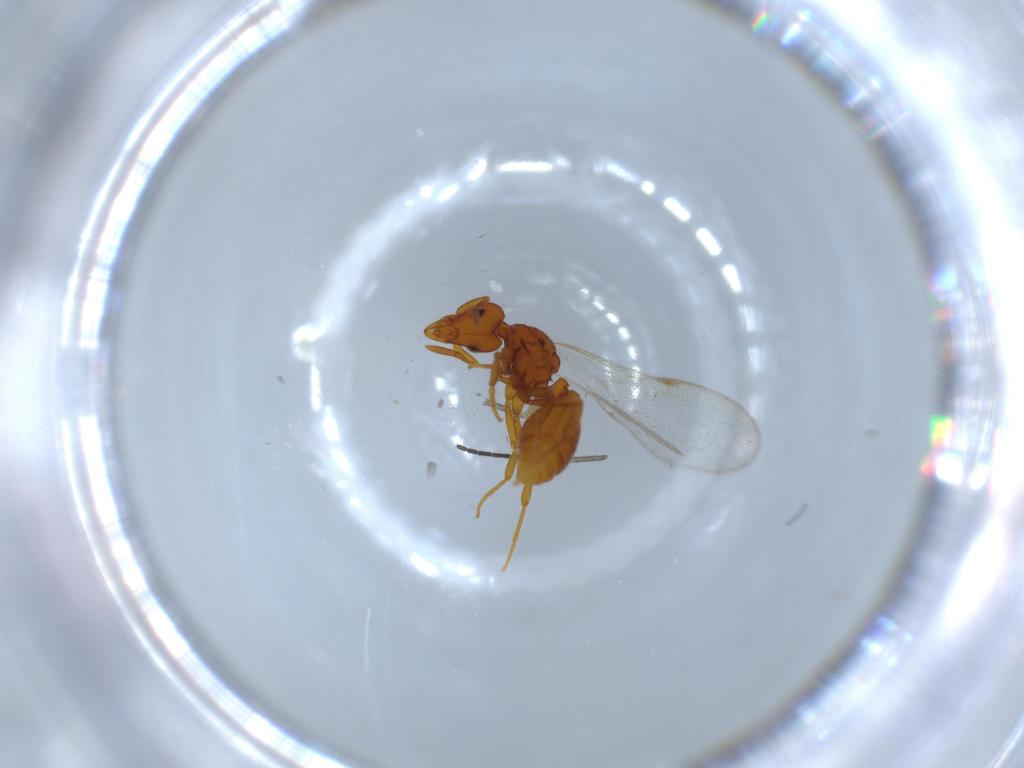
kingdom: Animalia
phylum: Arthropoda
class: Insecta
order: Hymenoptera
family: Formicidae
